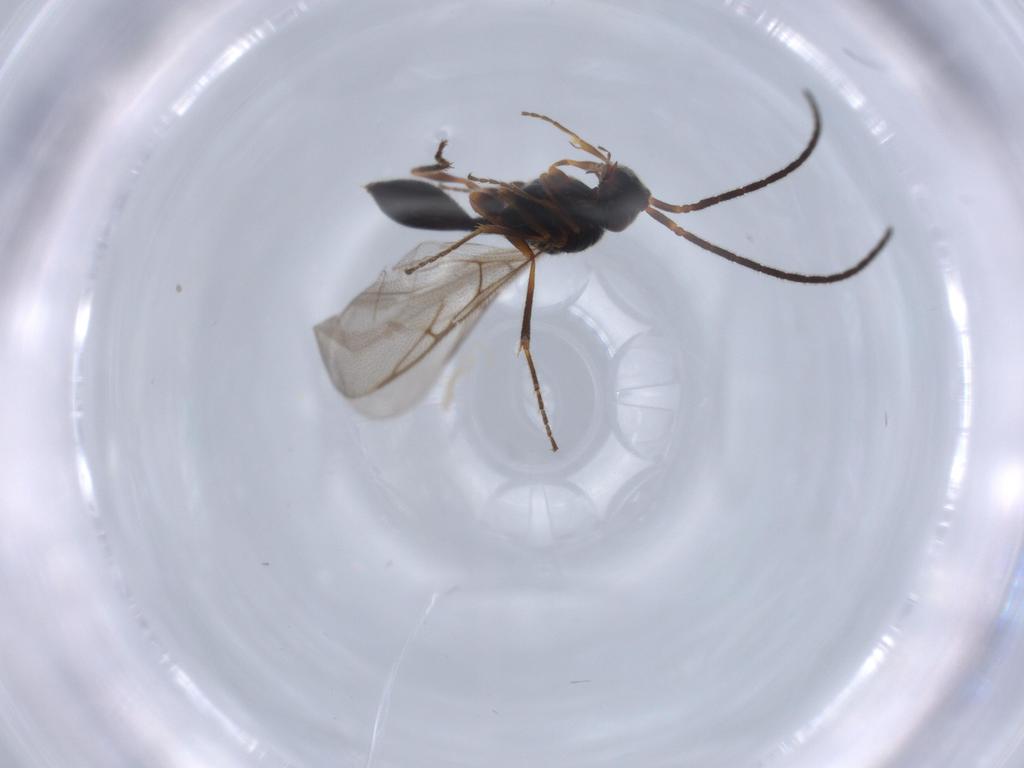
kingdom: Animalia
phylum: Arthropoda
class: Insecta
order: Hymenoptera
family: Diapriidae
